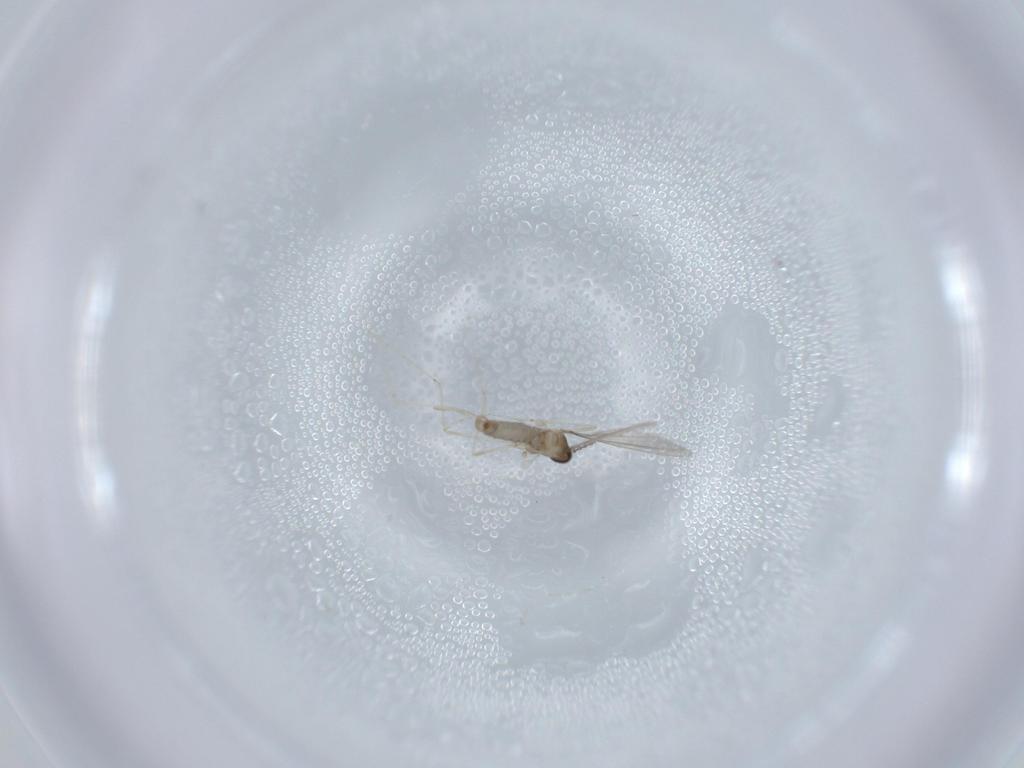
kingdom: Animalia
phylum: Arthropoda
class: Insecta
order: Diptera
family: Cecidomyiidae
